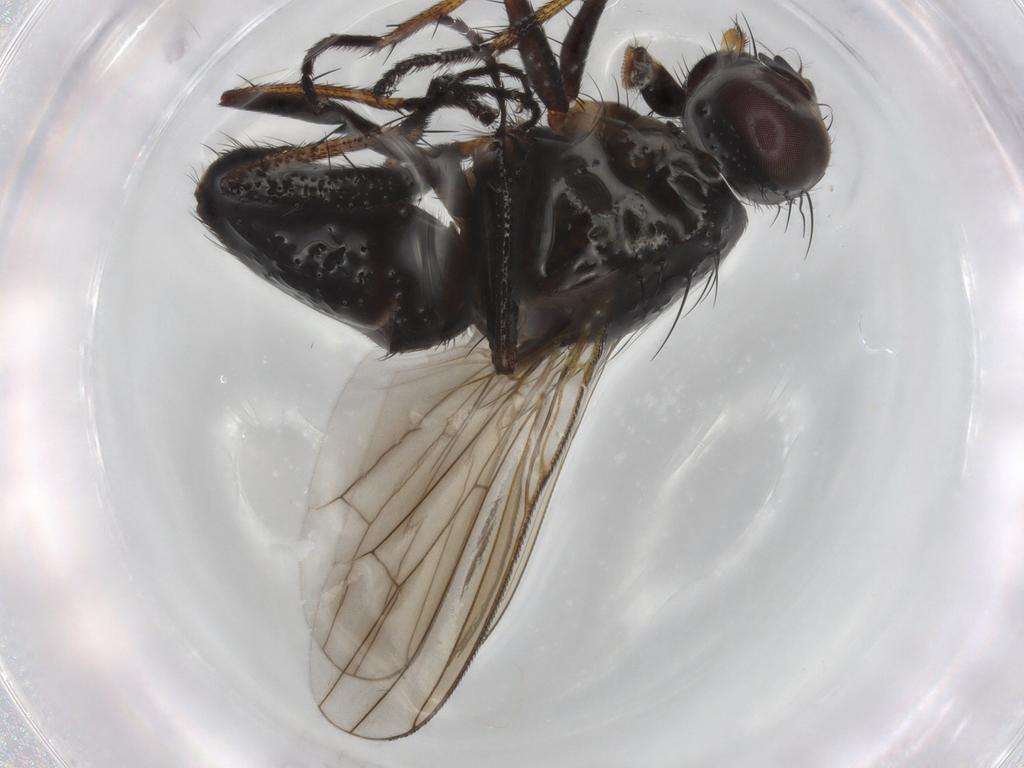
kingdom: Animalia
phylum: Arthropoda
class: Insecta
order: Diptera
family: Muscidae
